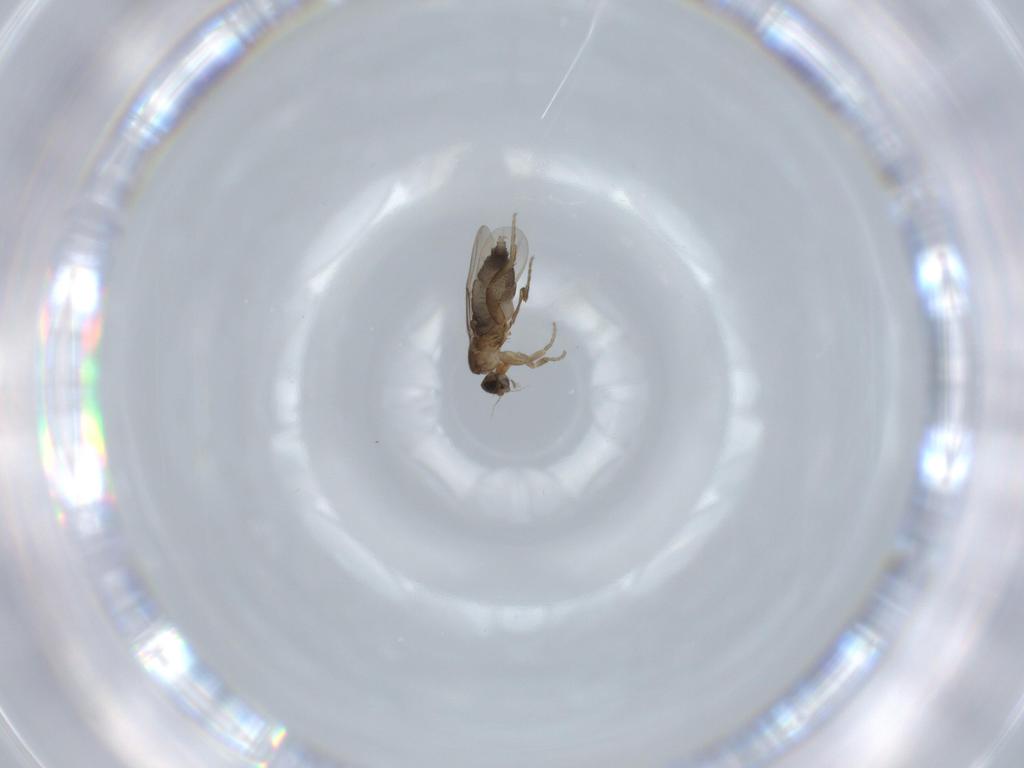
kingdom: Animalia
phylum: Arthropoda
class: Insecta
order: Diptera
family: Phoridae
